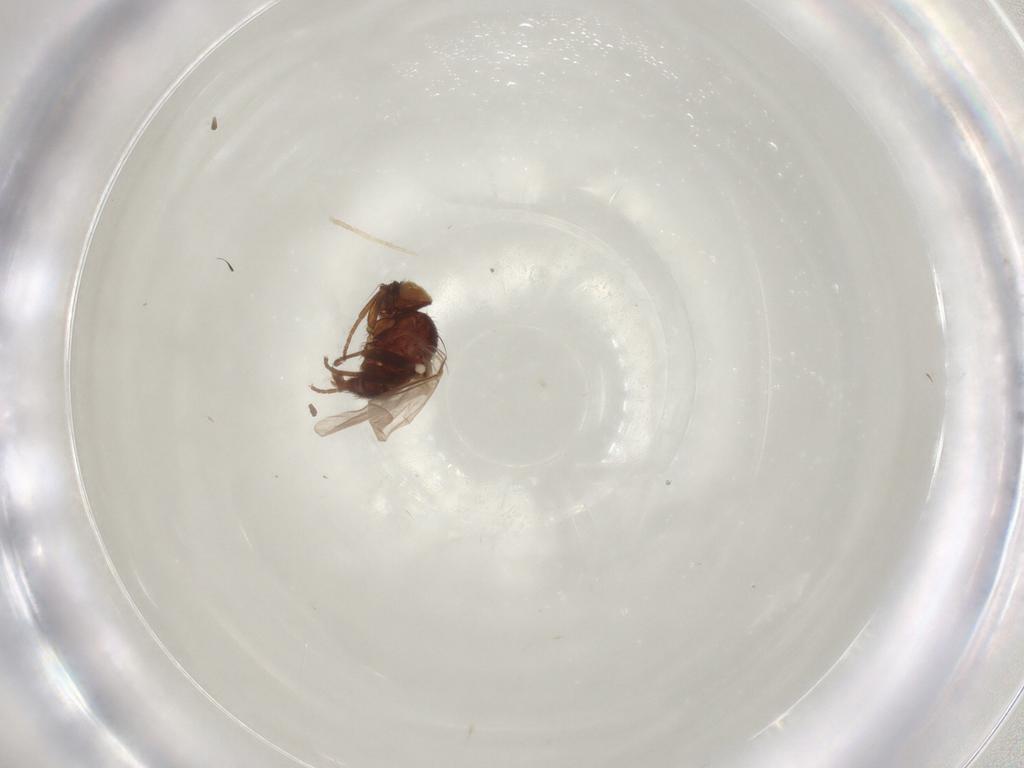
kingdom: Animalia
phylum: Arthropoda
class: Insecta
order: Diptera
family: Agromyzidae
